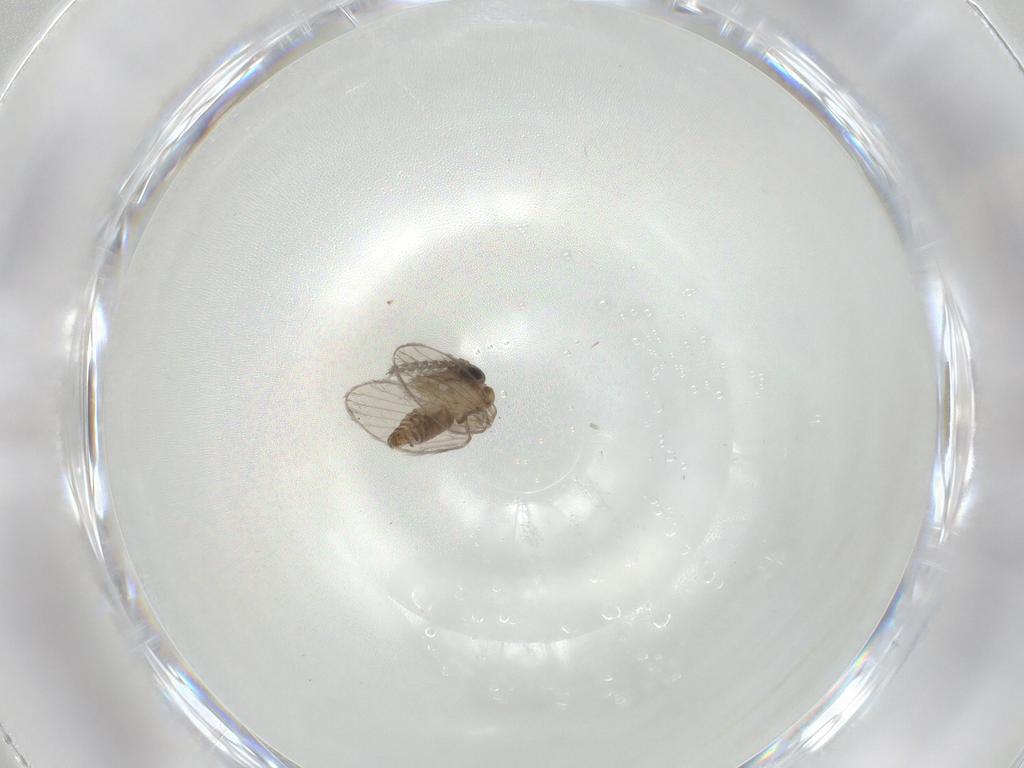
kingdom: Animalia
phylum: Arthropoda
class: Insecta
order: Diptera
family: Psychodidae
